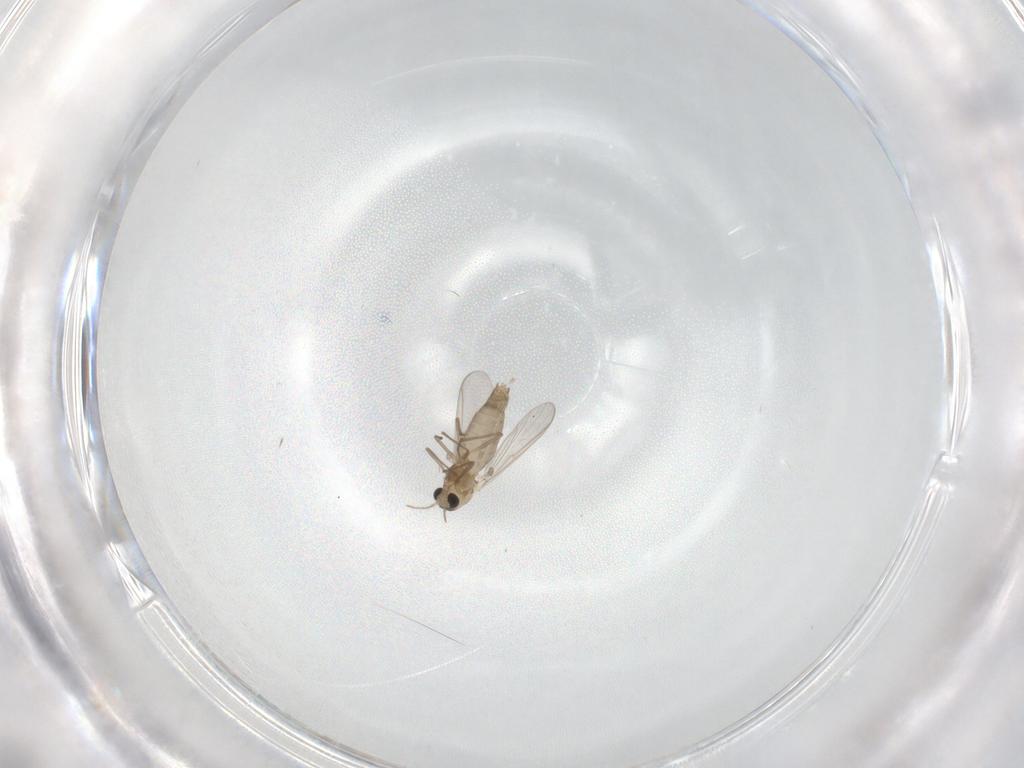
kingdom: Animalia
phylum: Arthropoda
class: Insecta
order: Diptera
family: Chironomidae
